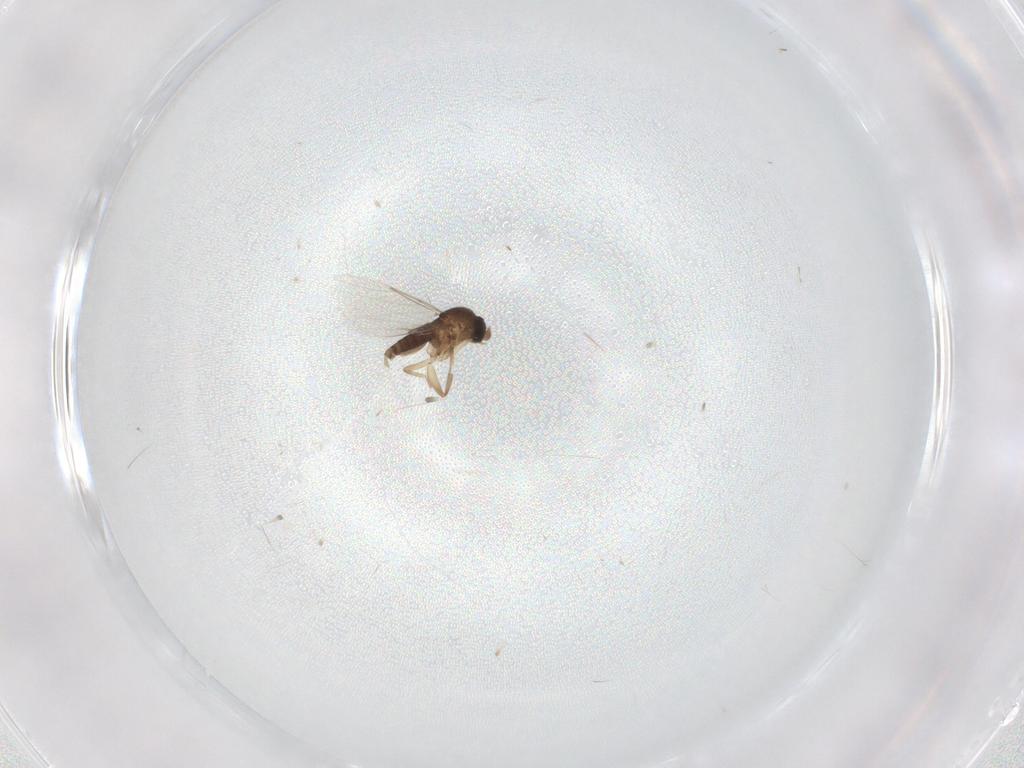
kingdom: Animalia
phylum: Arthropoda
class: Insecta
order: Diptera
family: Phoridae
